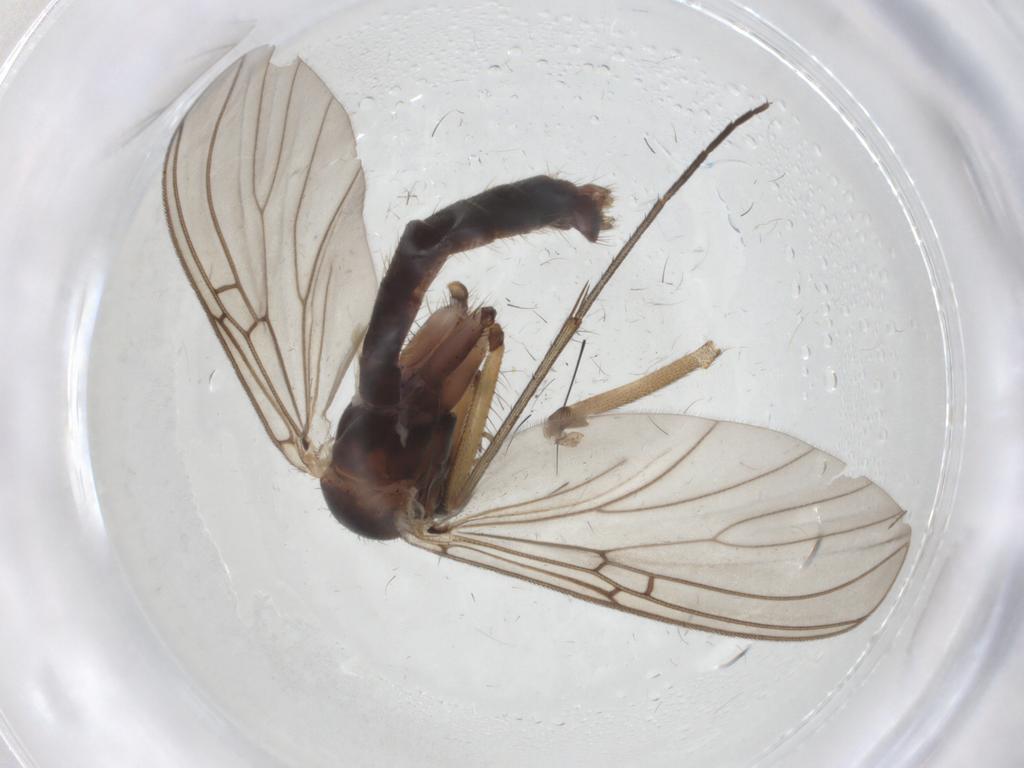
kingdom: Animalia
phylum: Arthropoda
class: Insecta
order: Diptera
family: Mycetophilidae
